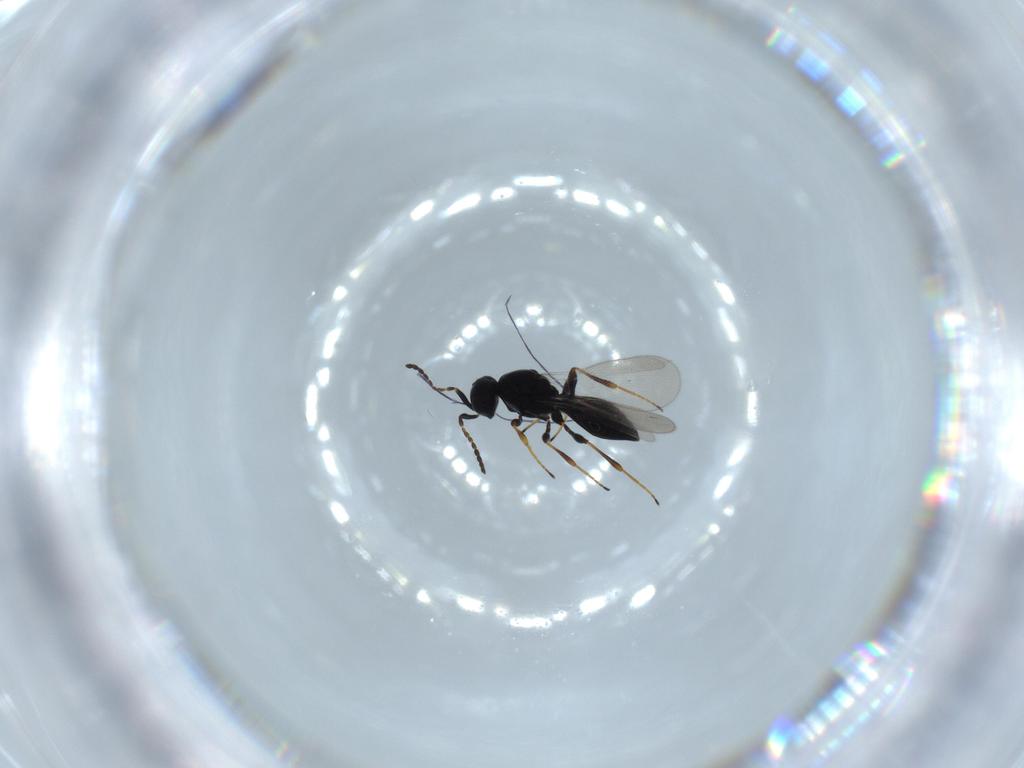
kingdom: Animalia
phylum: Arthropoda
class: Insecta
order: Hymenoptera
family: Platygastridae
